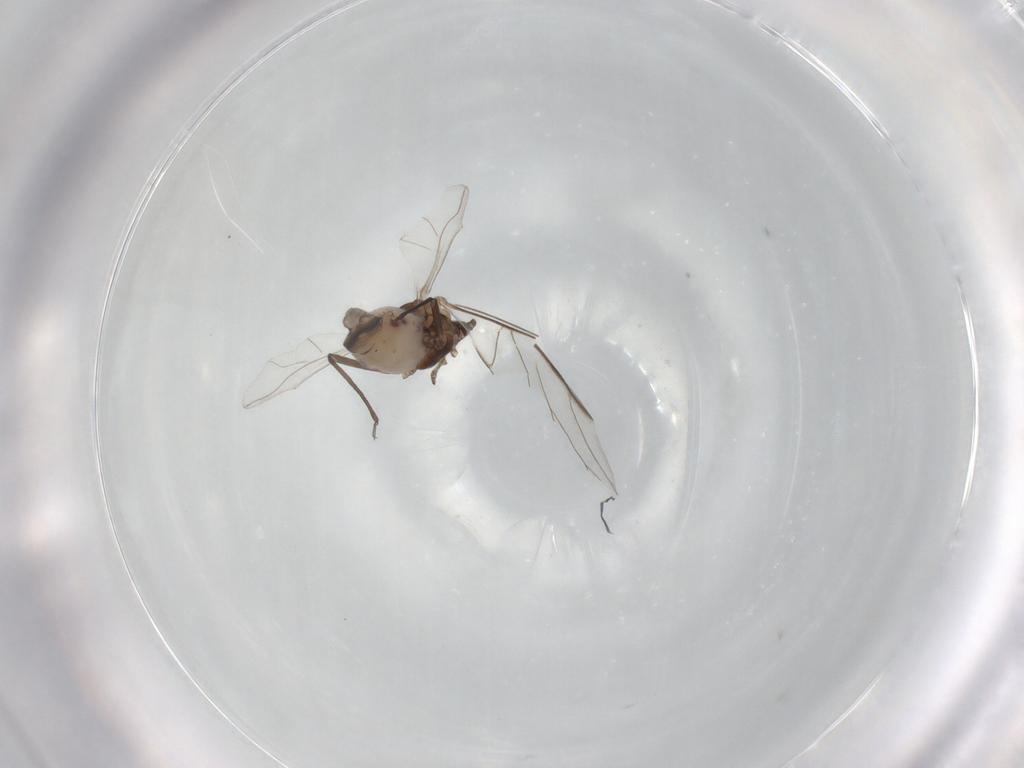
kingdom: Animalia
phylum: Arthropoda
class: Insecta
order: Hemiptera
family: Aphididae
